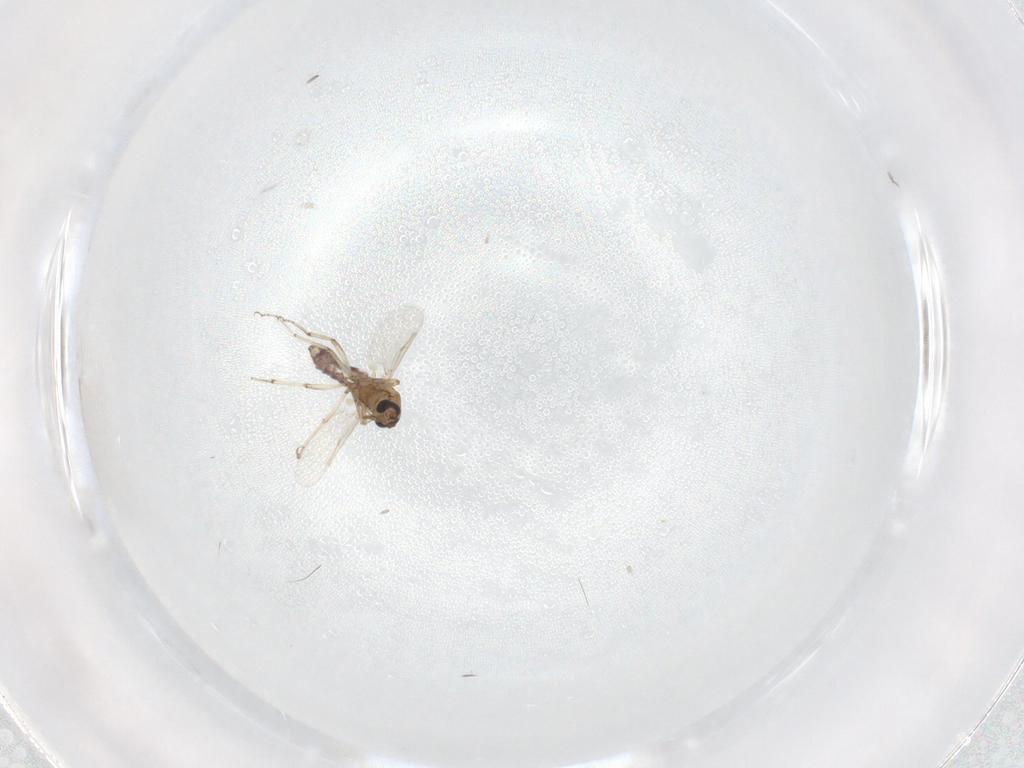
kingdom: Animalia
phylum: Arthropoda
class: Insecta
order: Diptera
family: Ceratopogonidae
